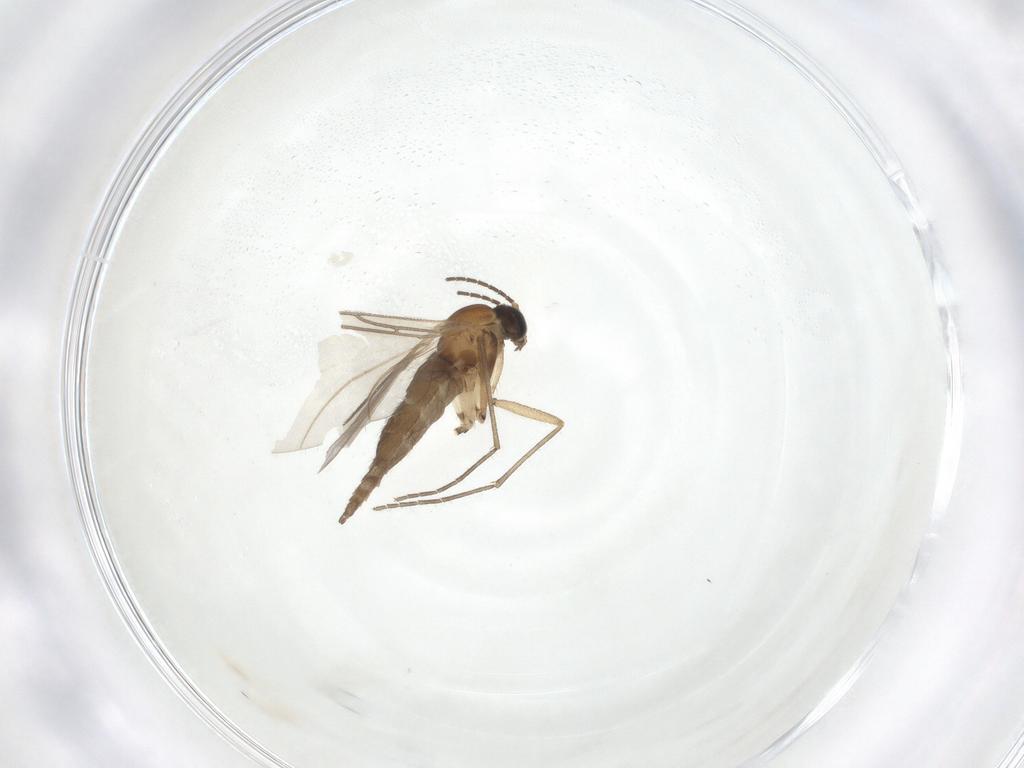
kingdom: Animalia
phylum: Arthropoda
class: Insecta
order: Diptera
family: Sciaridae
